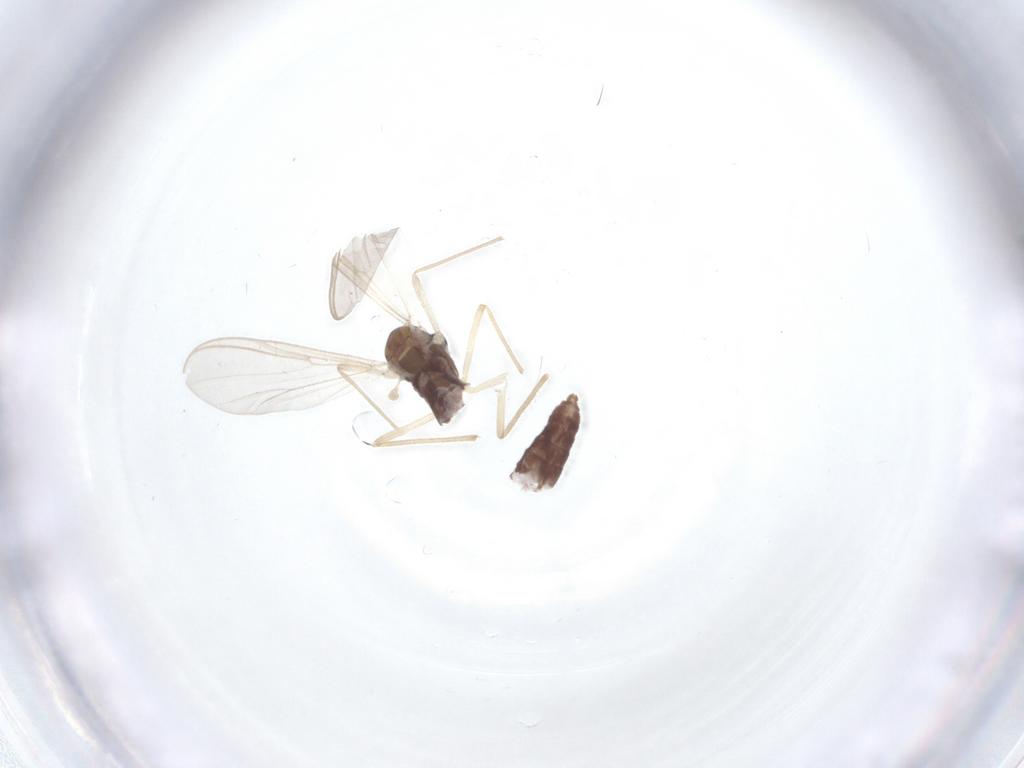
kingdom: Animalia
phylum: Arthropoda
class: Insecta
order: Diptera
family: Chironomidae
